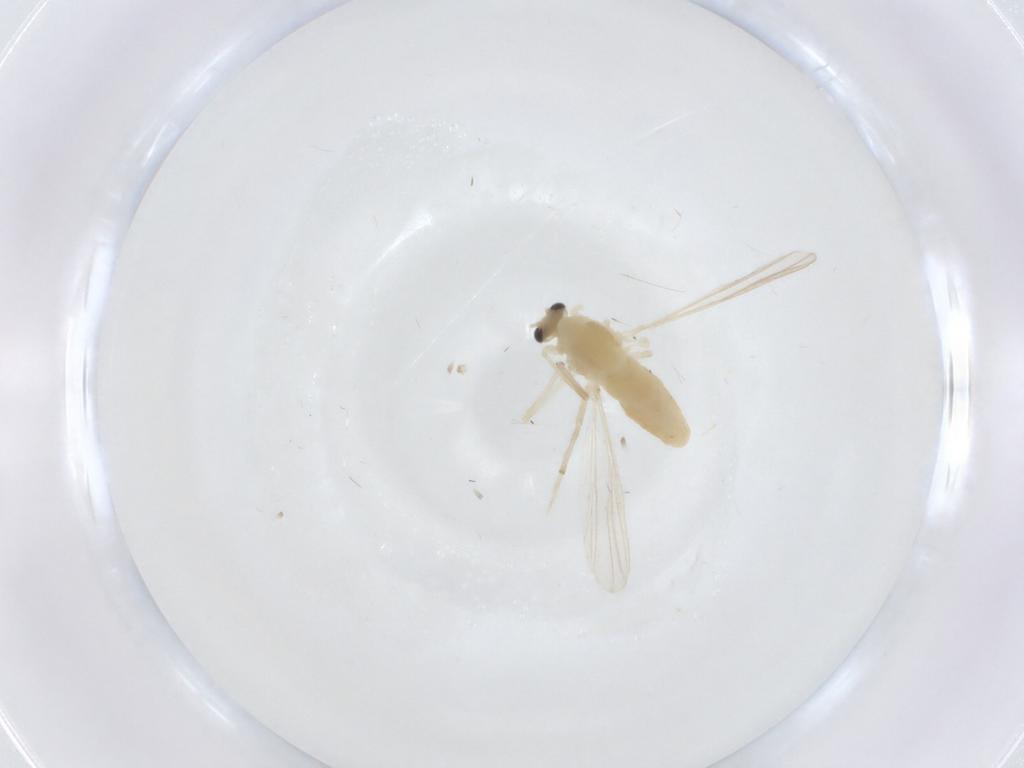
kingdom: Animalia
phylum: Arthropoda
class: Insecta
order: Diptera
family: Chironomidae
